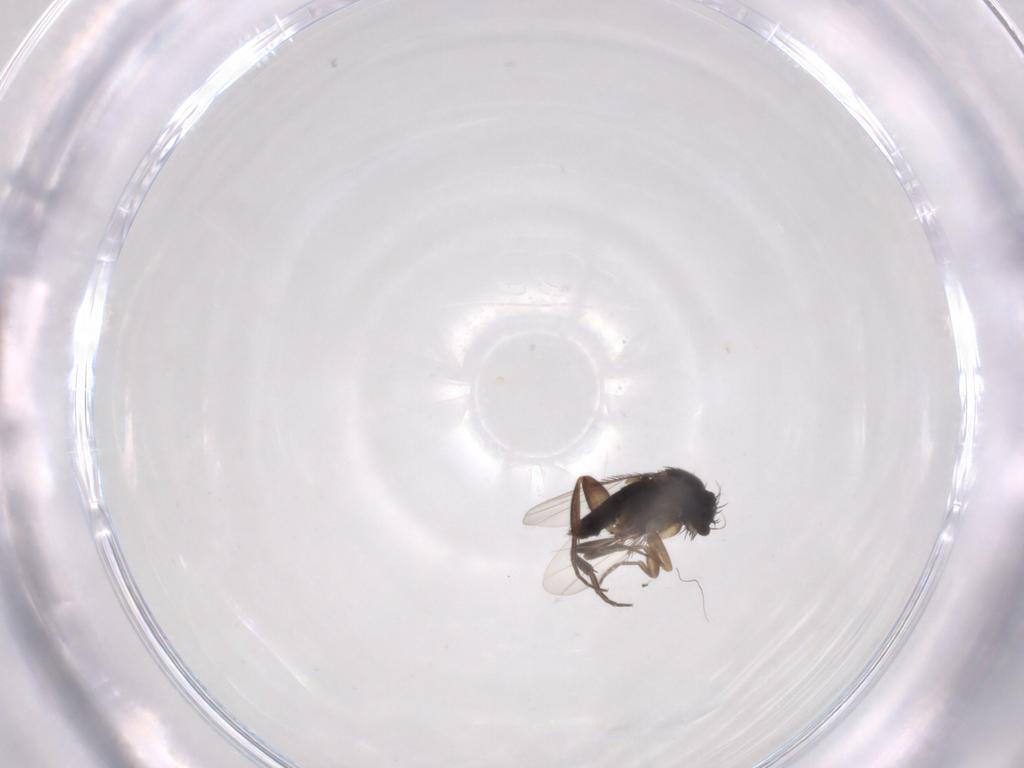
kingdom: Animalia
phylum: Arthropoda
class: Insecta
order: Diptera
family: Phoridae
